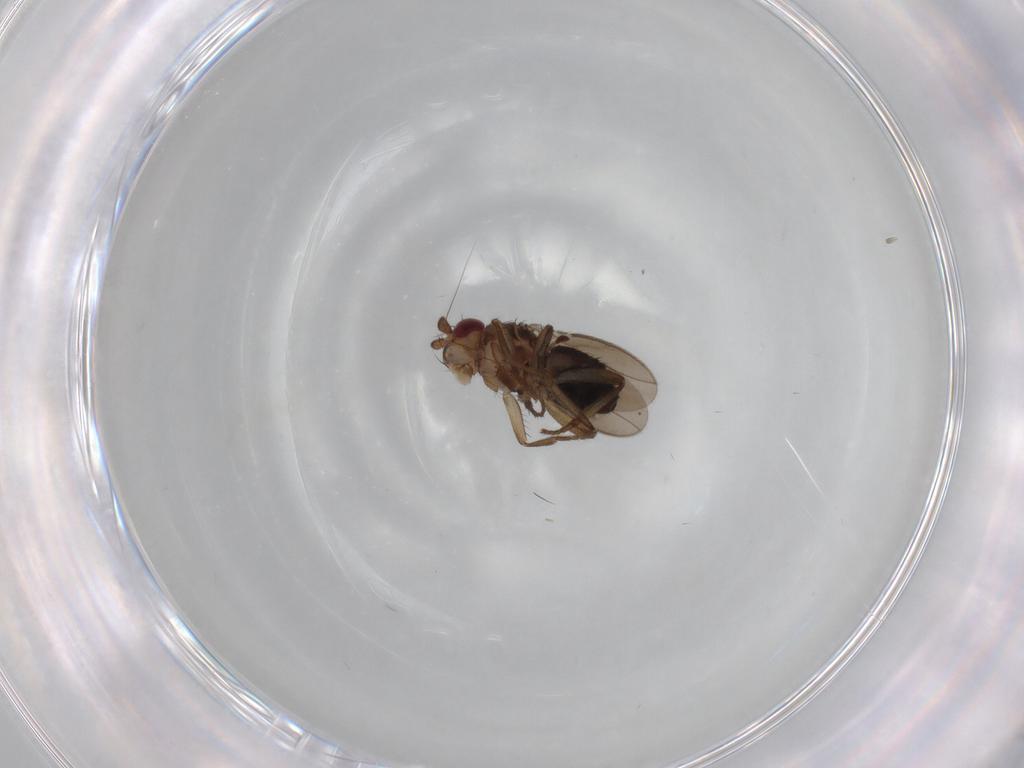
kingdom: Animalia
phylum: Arthropoda
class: Insecta
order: Diptera
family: Sphaeroceridae
